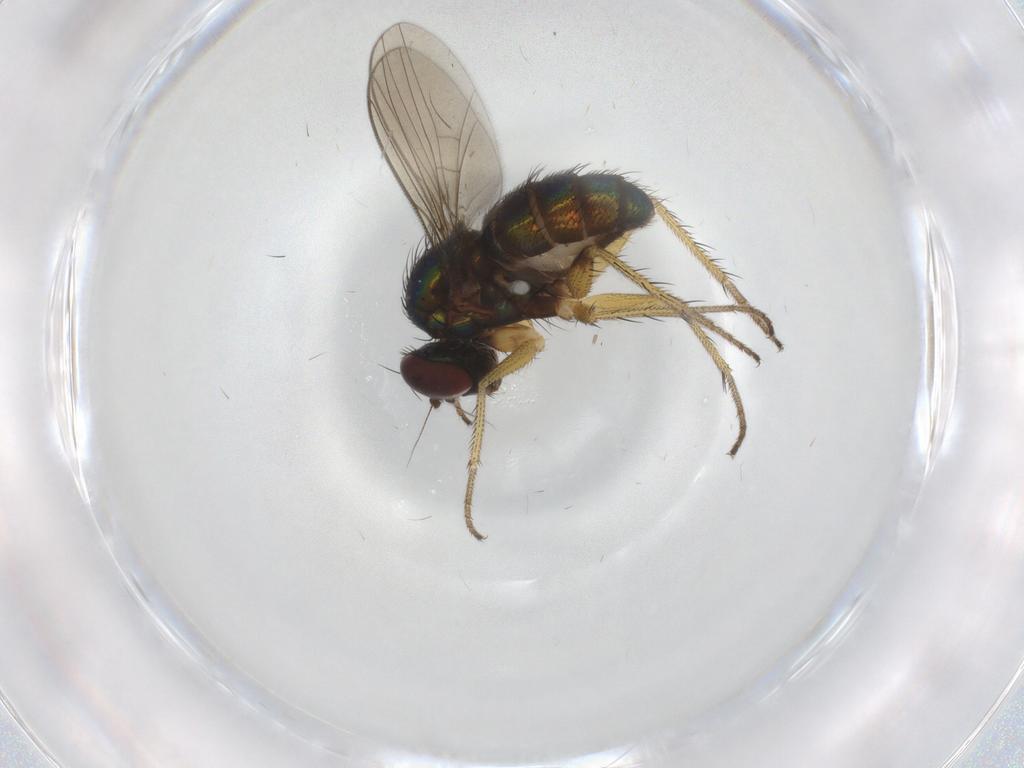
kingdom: Animalia
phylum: Arthropoda
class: Insecta
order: Diptera
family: Dolichopodidae
